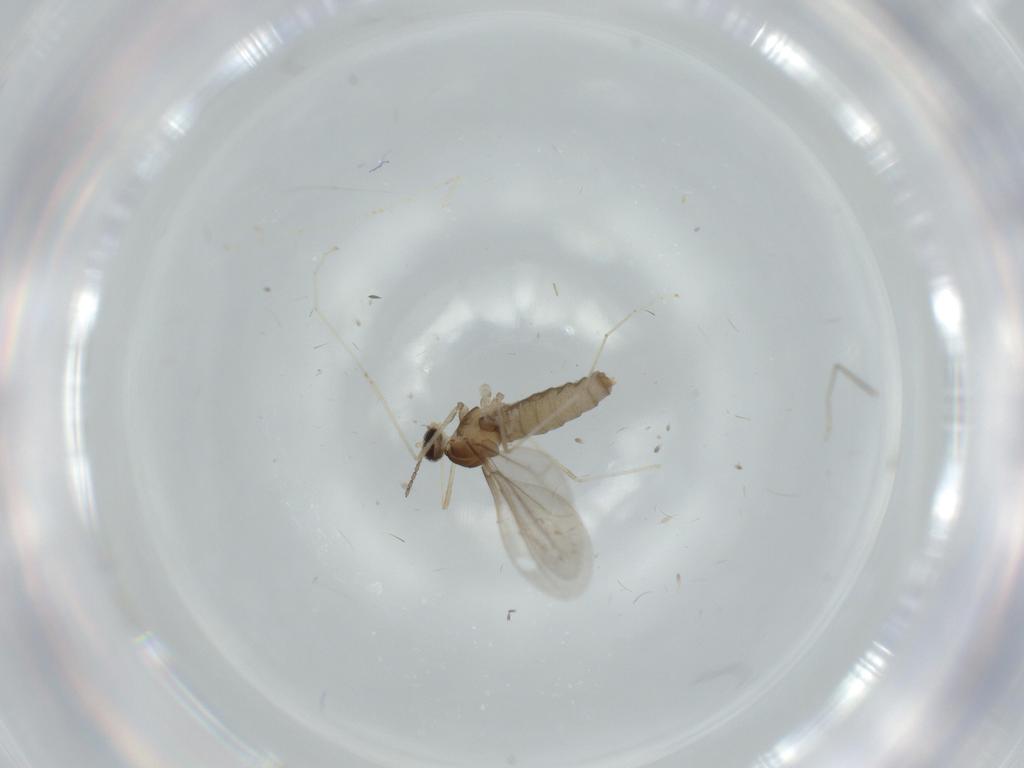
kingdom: Animalia
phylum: Arthropoda
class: Insecta
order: Diptera
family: Cecidomyiidae
